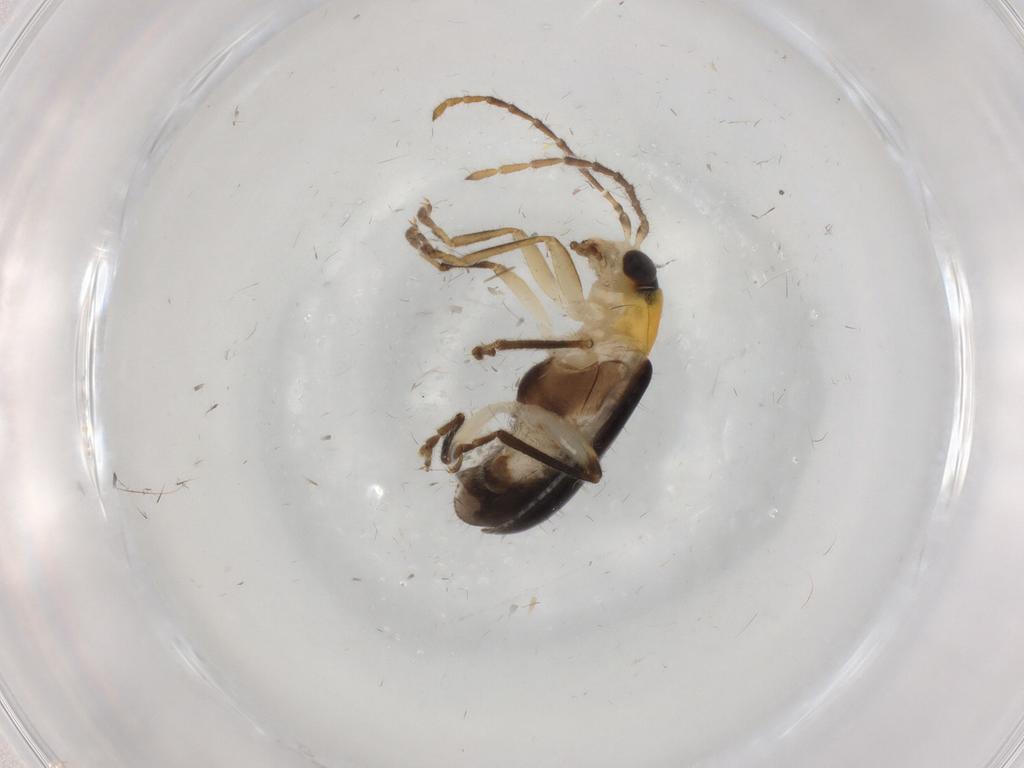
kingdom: Animalia
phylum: Arthropoda
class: Insecta
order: Coleoptera
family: Chrysomelidae
